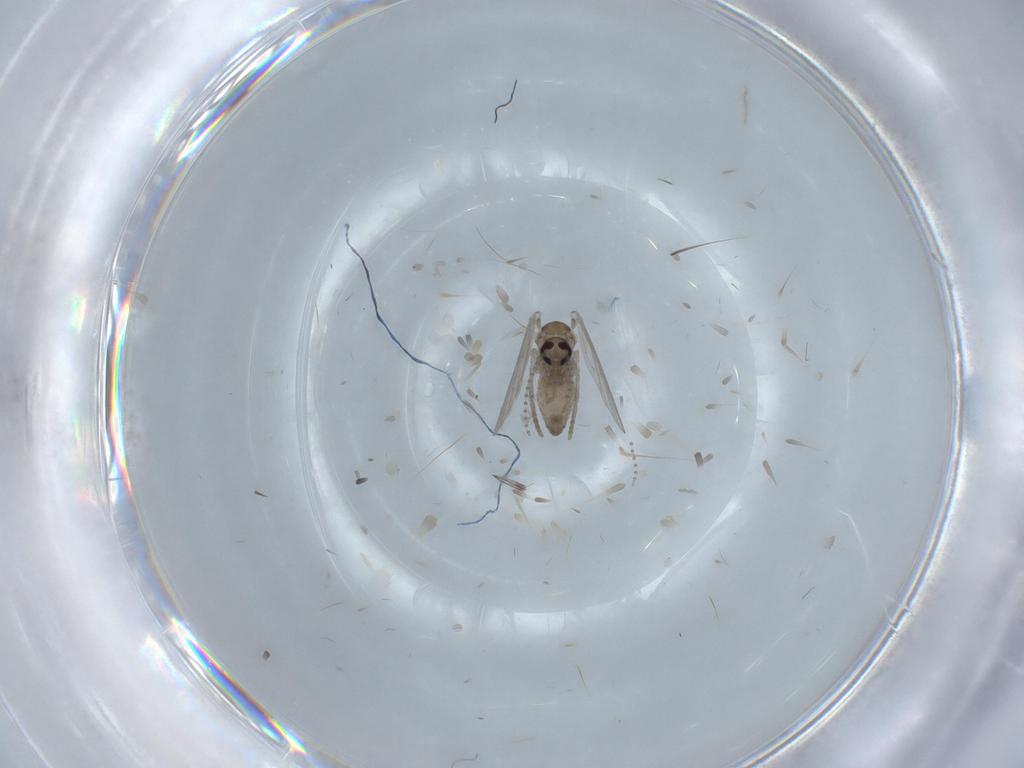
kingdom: Animalia
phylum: Arthropoda
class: Insecta
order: Diptera
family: Psychodidae
